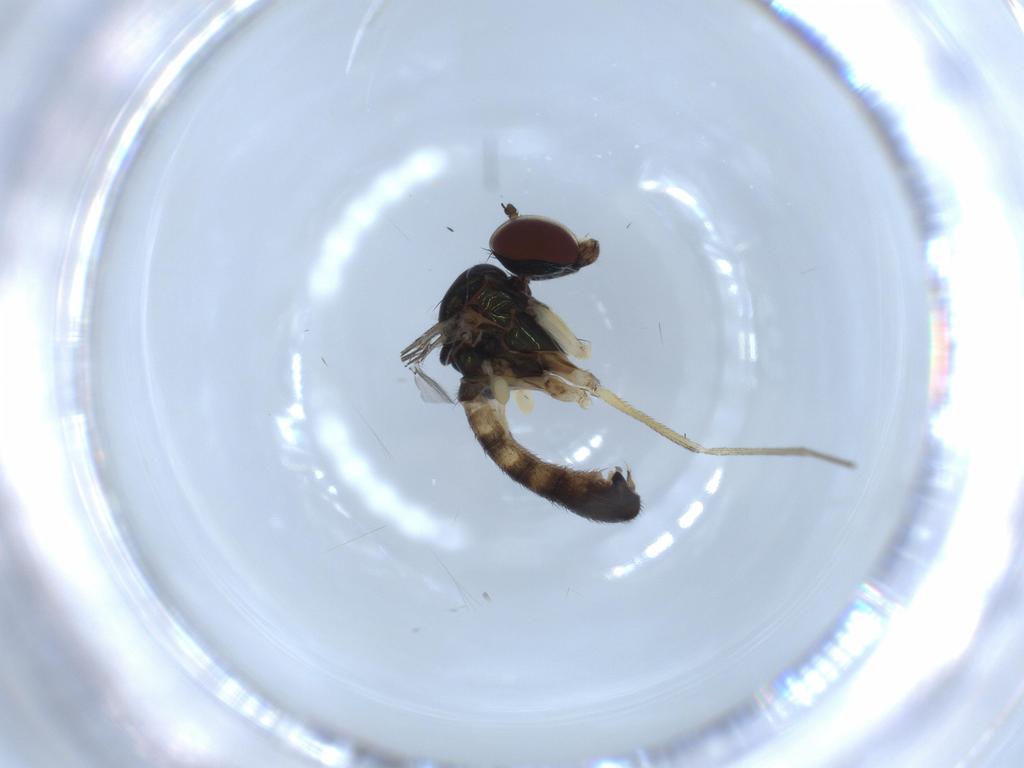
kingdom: Animalia
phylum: Arthropoda
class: Insecta
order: Diptera
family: Dolichopodidae
